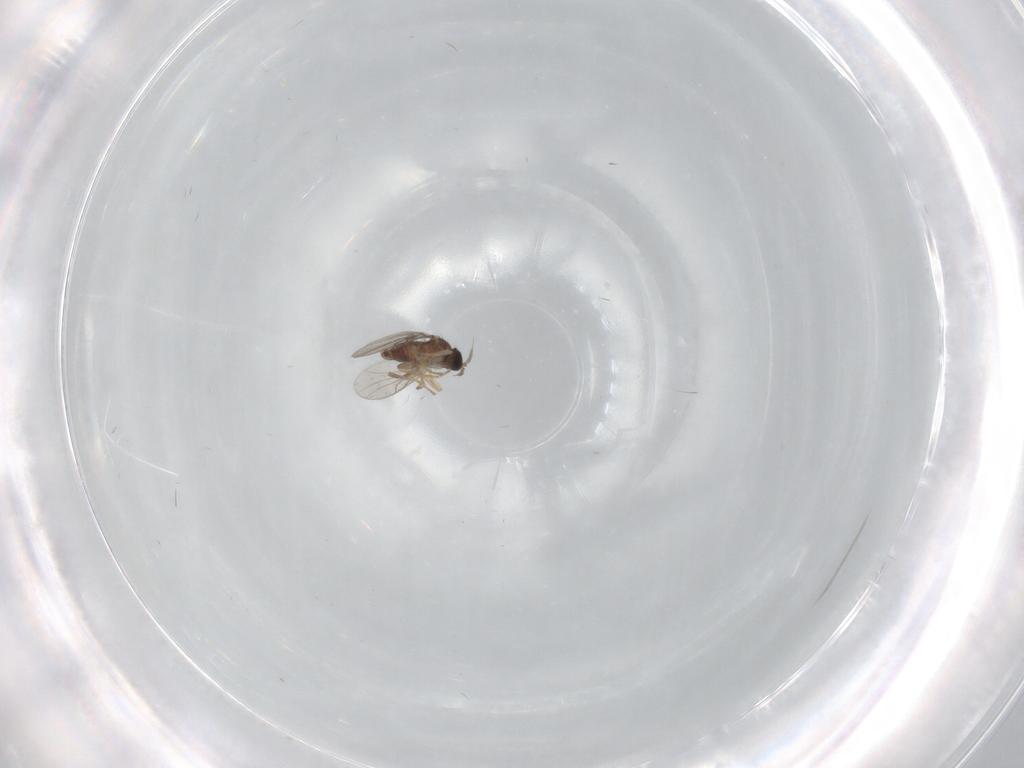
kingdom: Animalia
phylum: Arthropoda
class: Insecta
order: Diptera
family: Hybotidae
